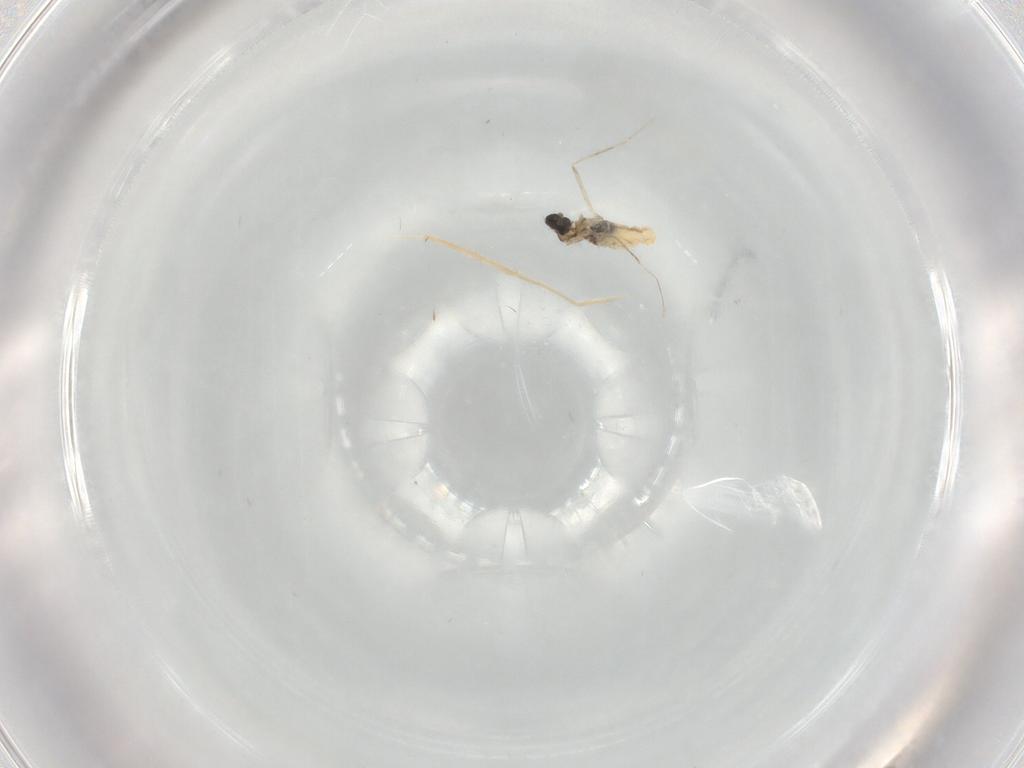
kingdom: Animalia
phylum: Arthropoda
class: Insecta
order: Diptera
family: Cecidomyiidae
